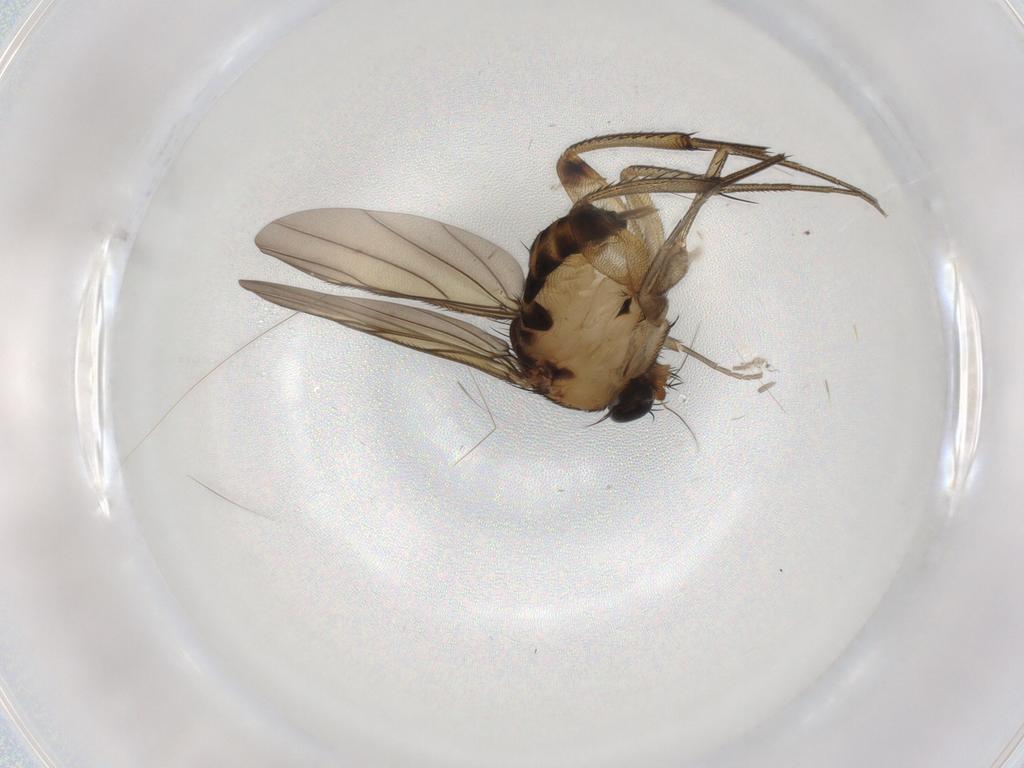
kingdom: Animalia
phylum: Arthropoda
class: Insecta
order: Diptera
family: Phoridae
